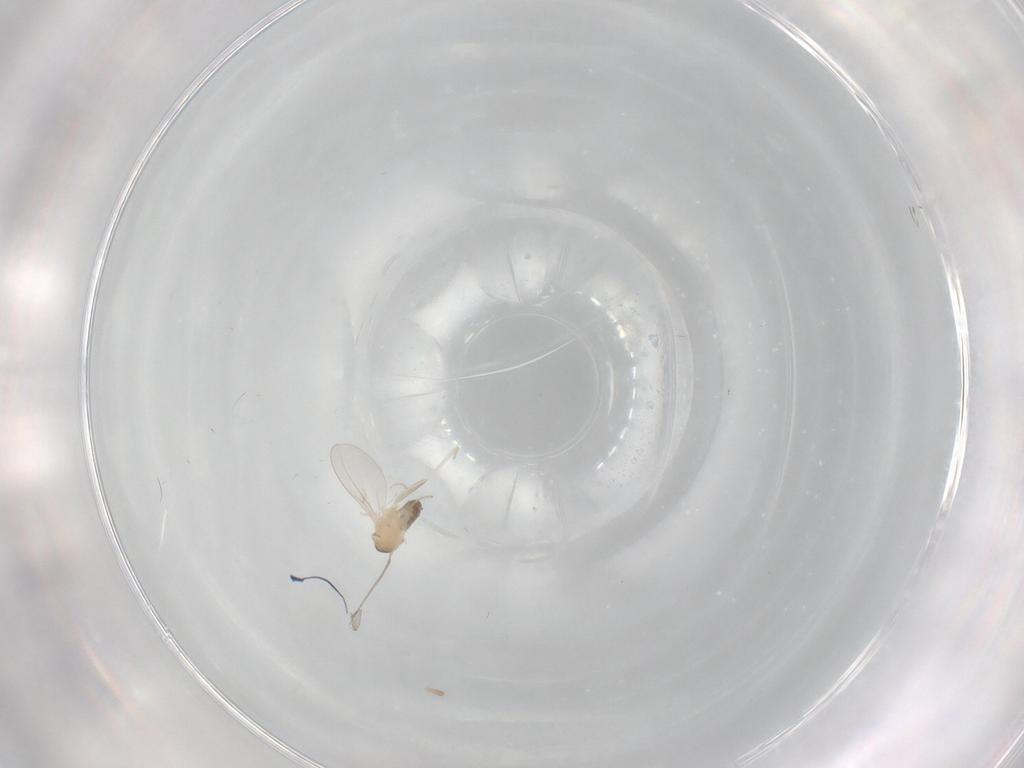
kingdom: Animalia
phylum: Arthropoda
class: Insecta
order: Diptera
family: Cecidomyiidae
